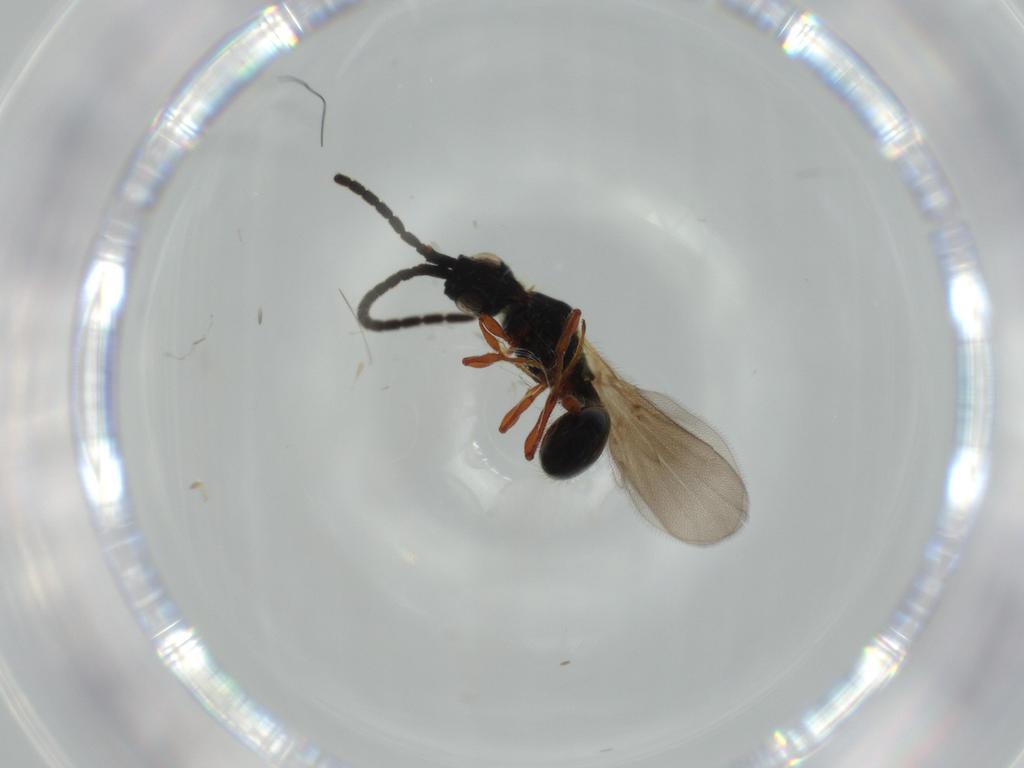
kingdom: Animalia
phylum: Arthropoda
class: Insecta
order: Hymenoptera
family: Diapriidae
